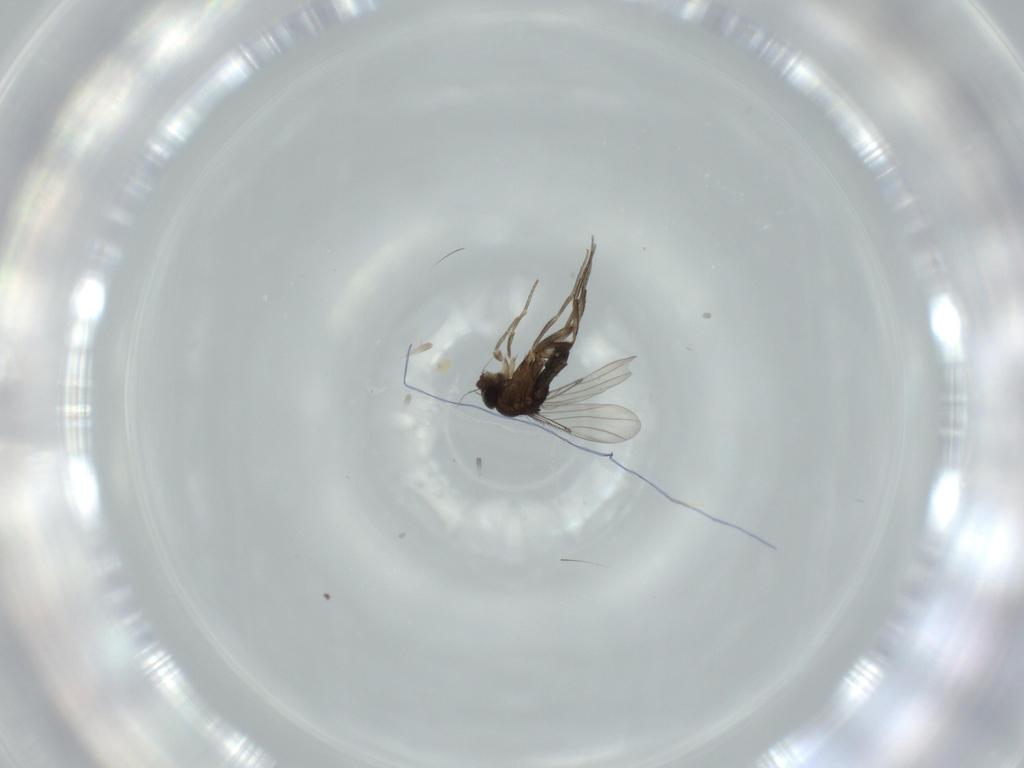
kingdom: Animalia
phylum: Arthropoda
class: Insecta
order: Diptera
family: Phoridae
